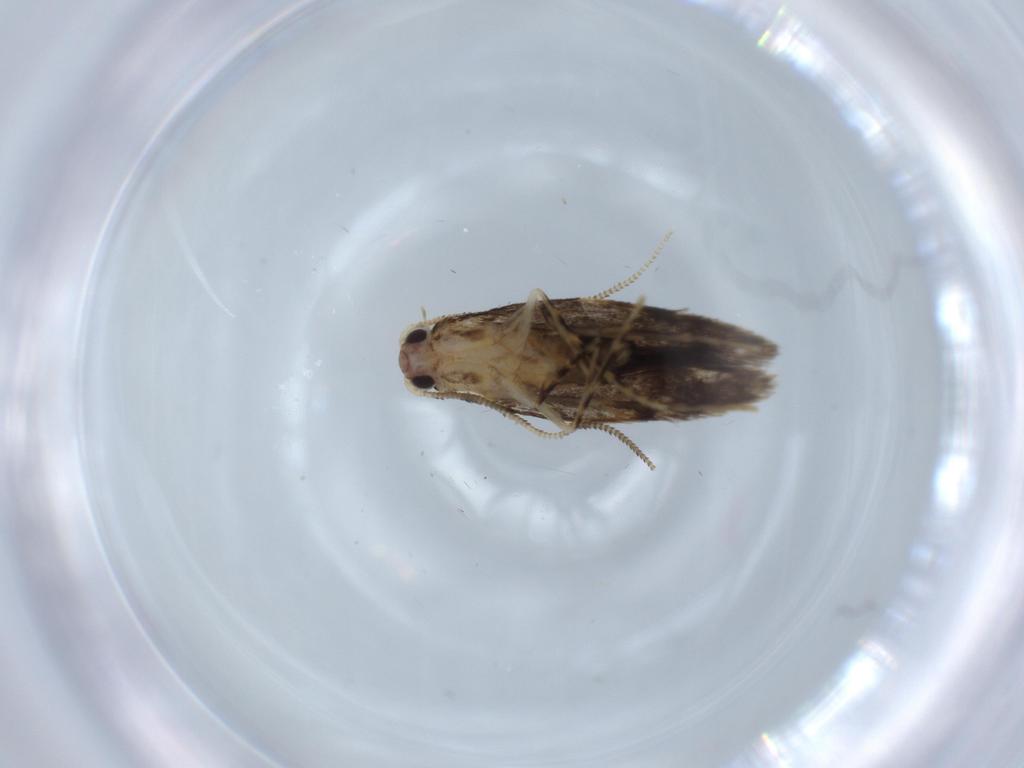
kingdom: Animalia
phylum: Arthropoda
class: Insecta
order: Lepidoptera
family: Tineidae
